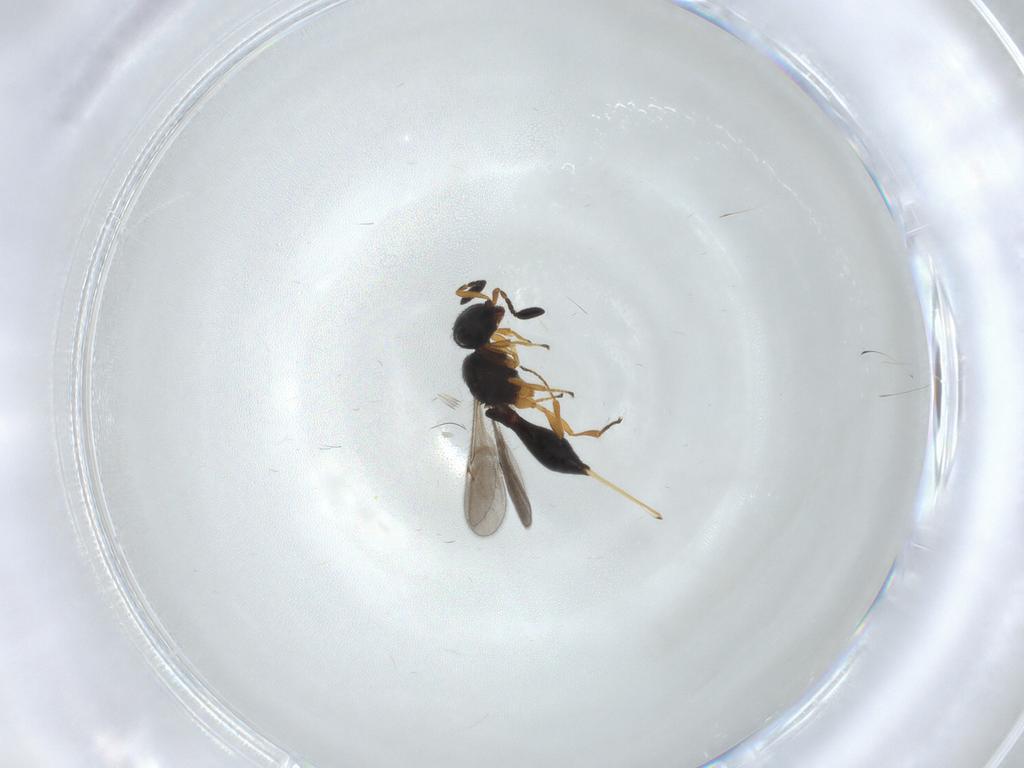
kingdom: Animalia
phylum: Arthropoda
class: Insecta
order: Hymenoptera
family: Scelionidae
